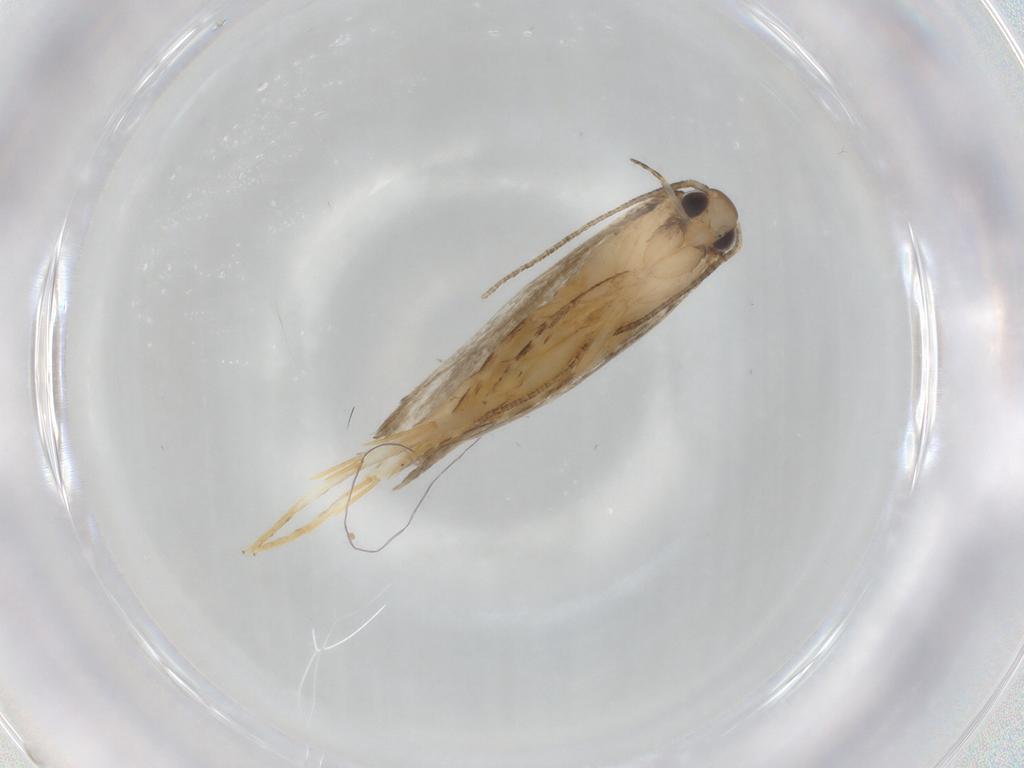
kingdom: Animalia
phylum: Arthropoda
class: Insecta
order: Lepidoptera
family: Autostichidae
